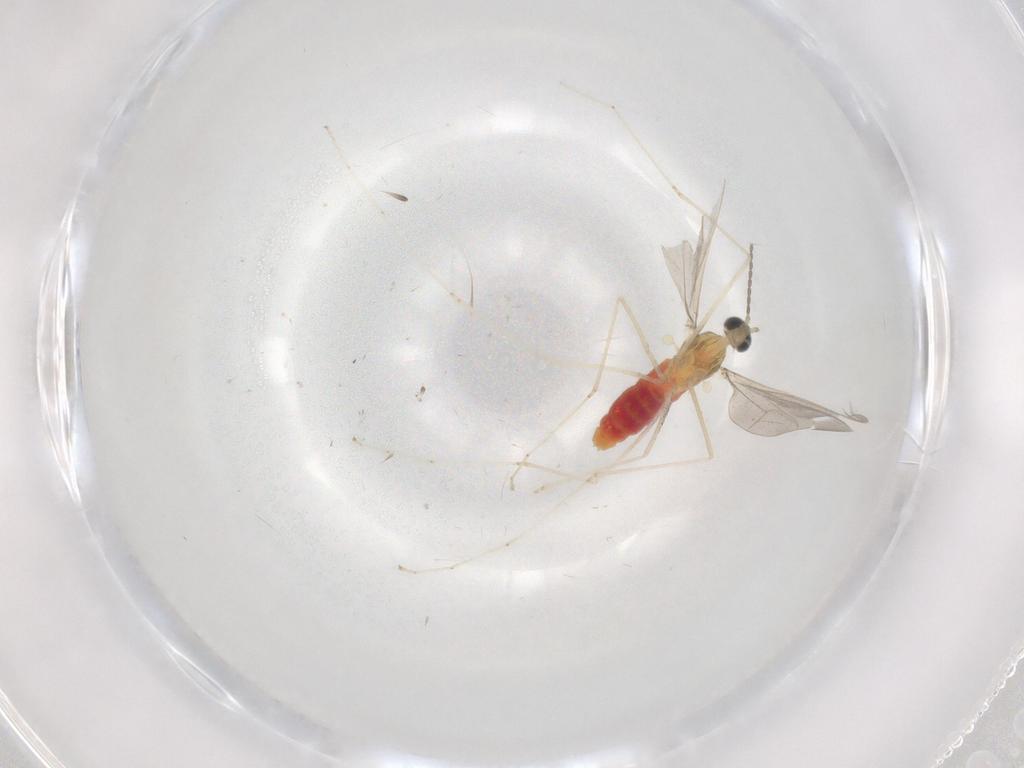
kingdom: Animalia
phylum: Arthropoda
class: Insecta
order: Diptera
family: Cecidomyiidae
